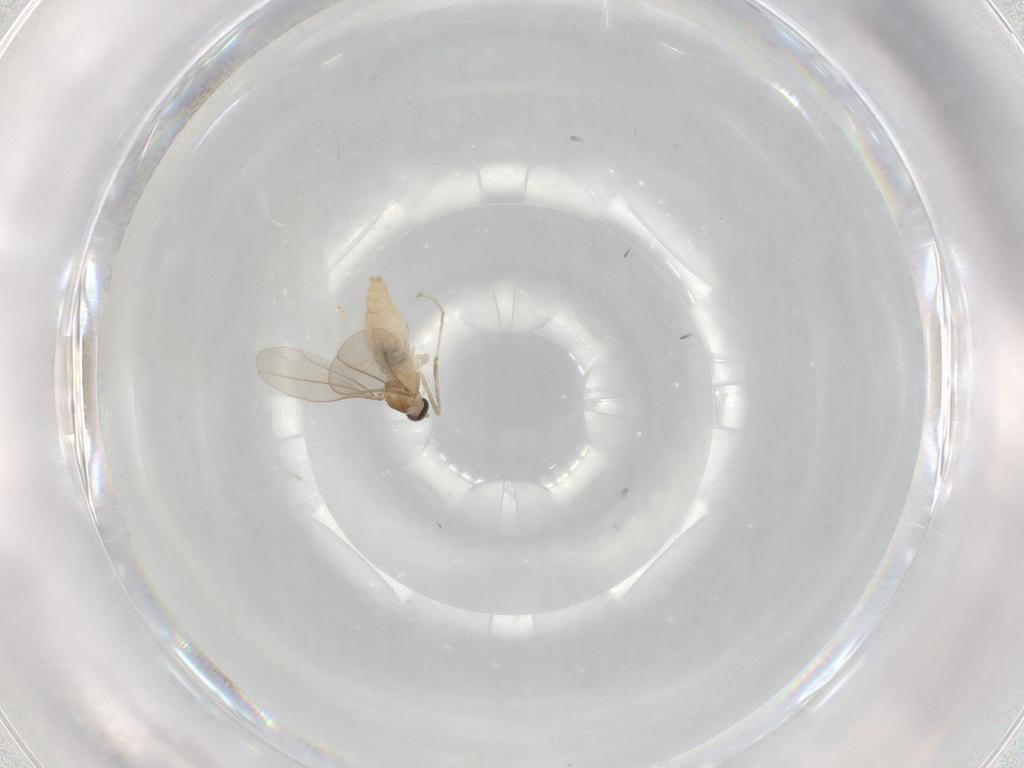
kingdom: Animalia
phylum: Arthropoda
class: Insecta
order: Diptera
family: Cecidomyiidae
